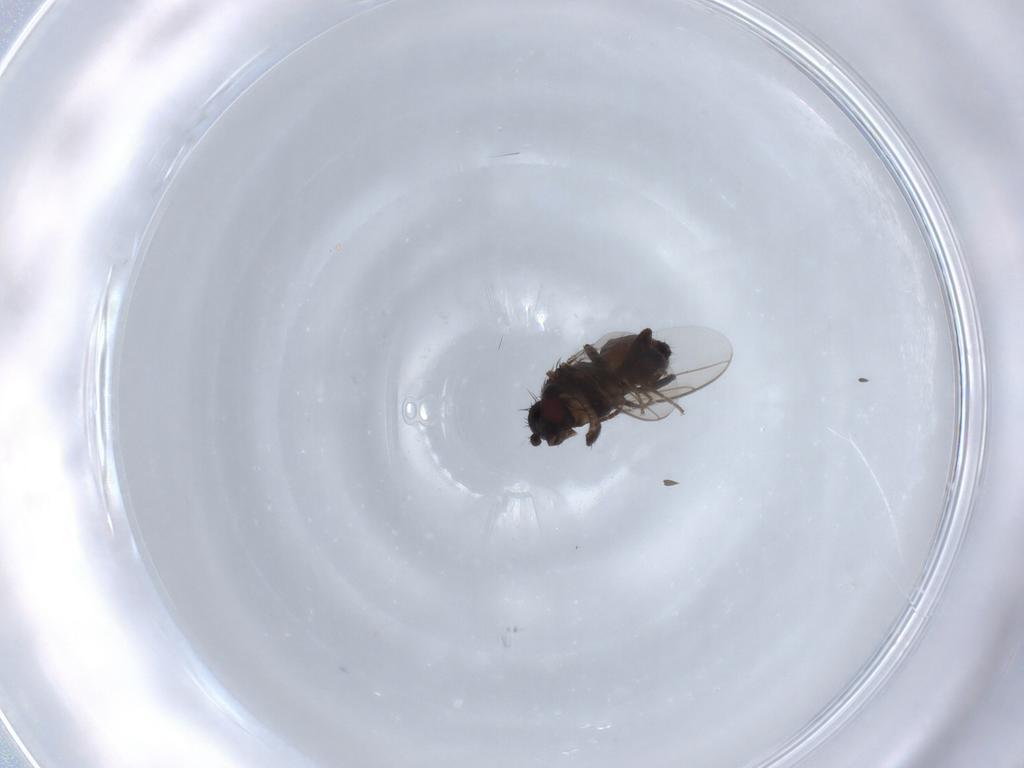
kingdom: Animalia
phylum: Arthropoda
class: Insecta
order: Diptera
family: Sphaeroceridae
